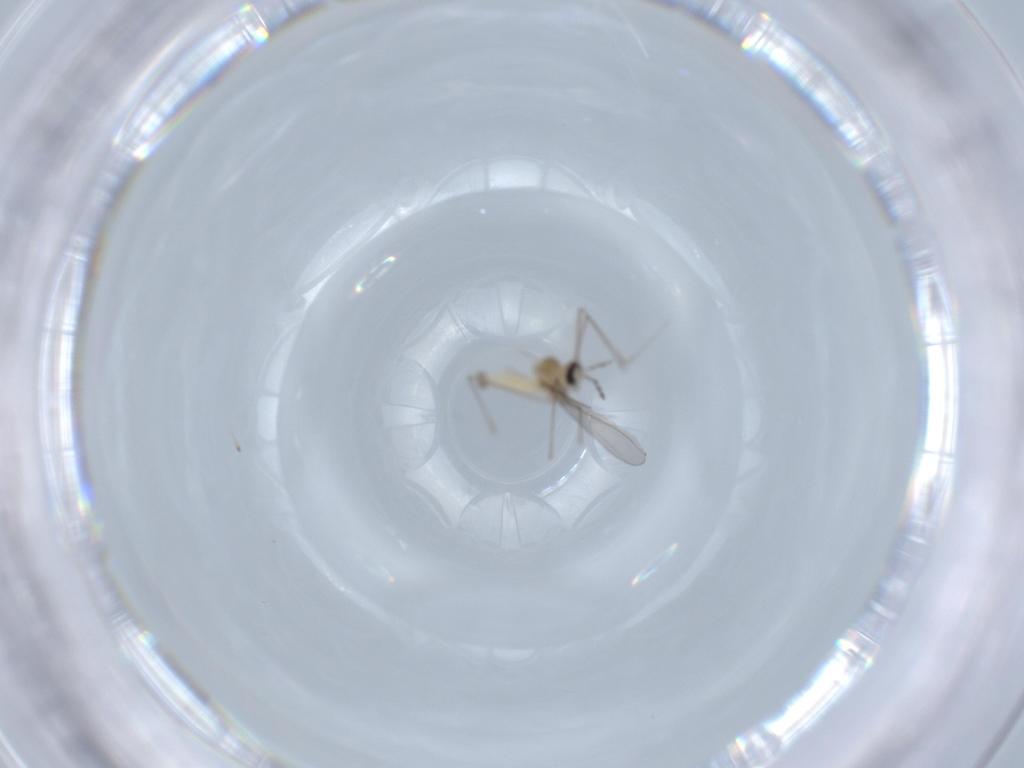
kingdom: Animalia
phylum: Arthropoda
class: Insecta
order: Diptera
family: Cecidomyiidae
